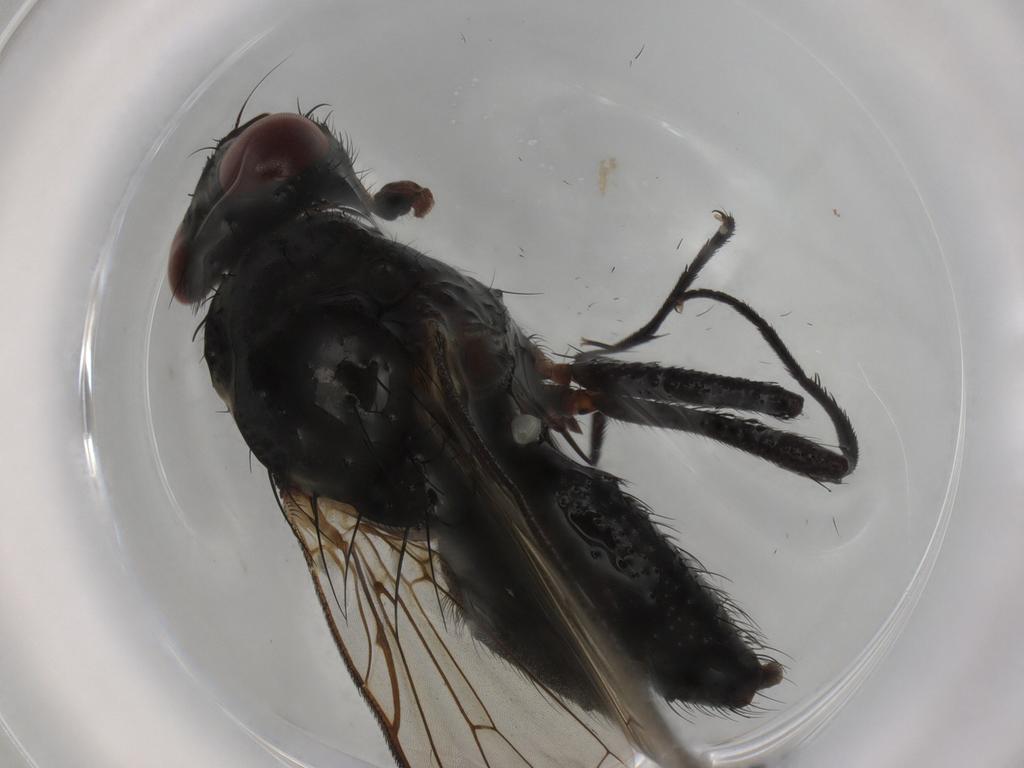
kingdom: Animalia
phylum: Arthropoda
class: Insecta
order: Diptera
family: Anthomyiidae
